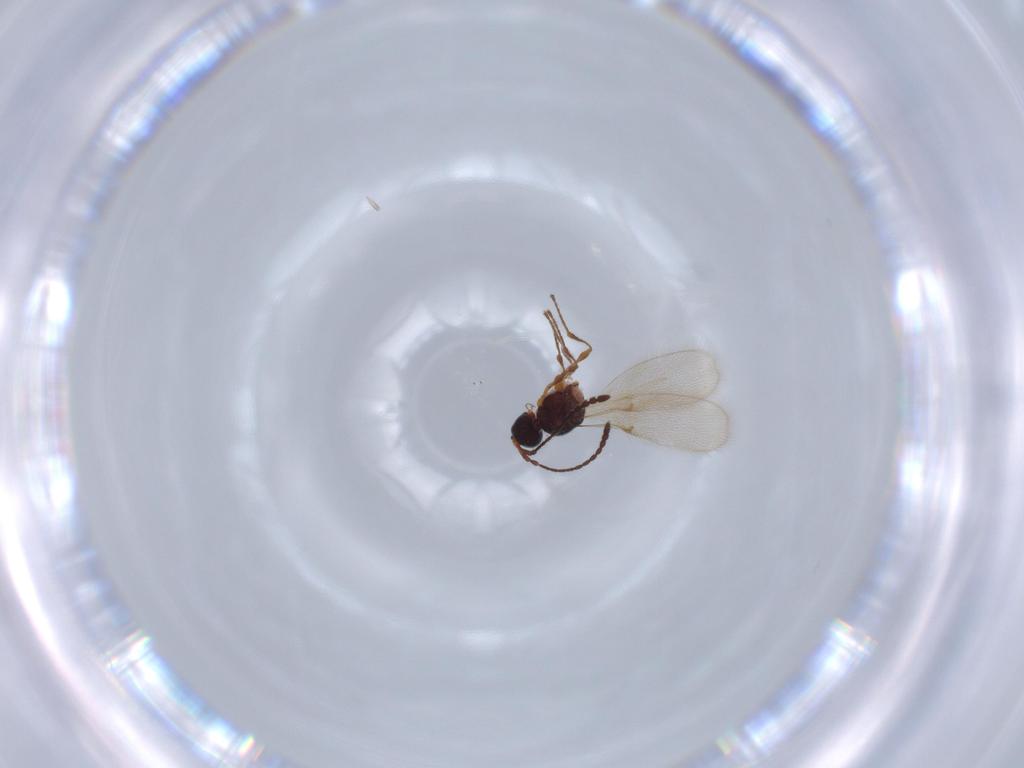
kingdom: Animalia
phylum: Arthropoda
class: Insecta
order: Hymenoptera
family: Diapriidae
